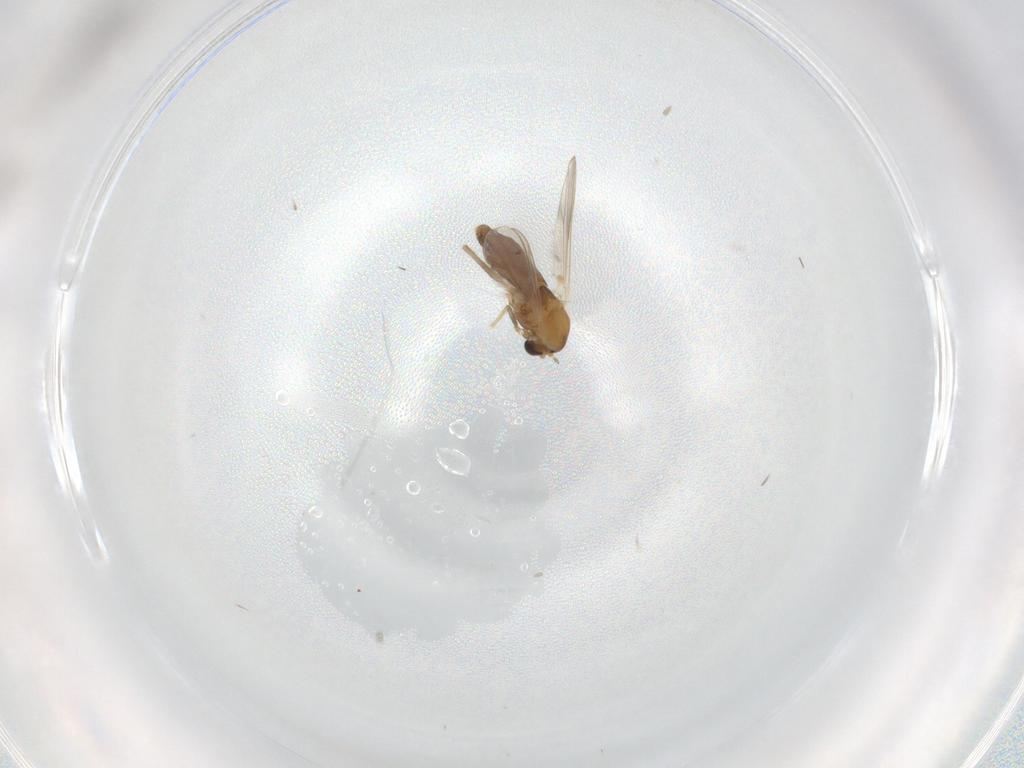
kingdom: Animalia
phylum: Arthropoda
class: Insecta
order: Diptera
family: Chironomidae
